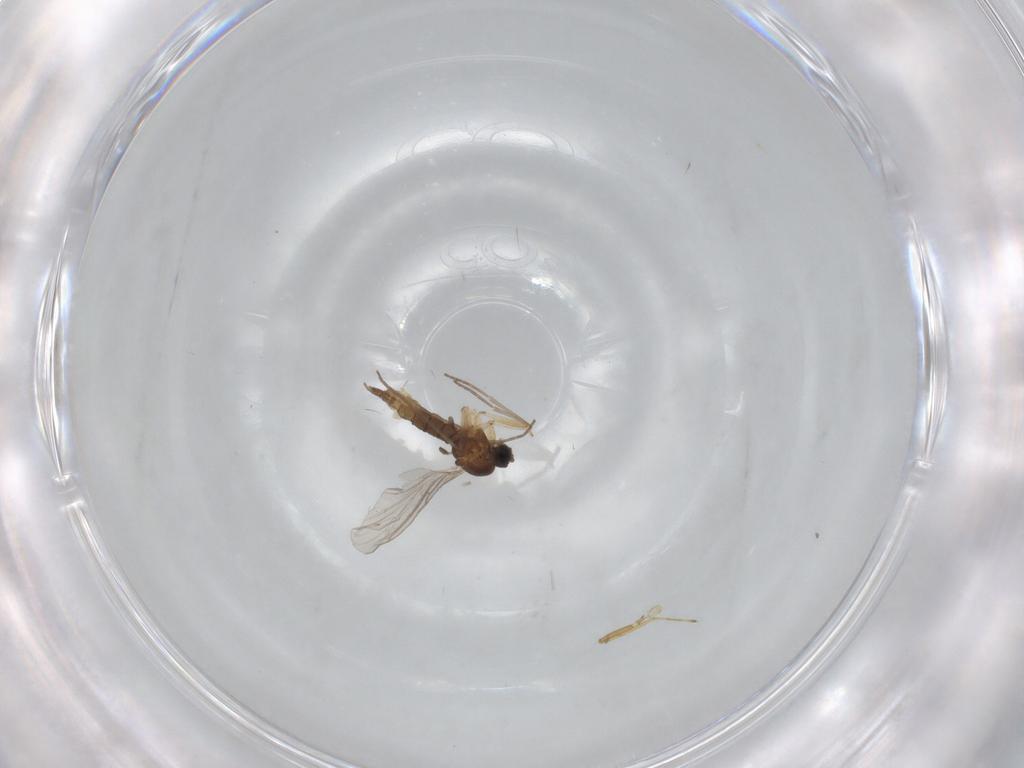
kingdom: Animalia
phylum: Arthropoda
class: Insecta
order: Diptera
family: Sciaridae
